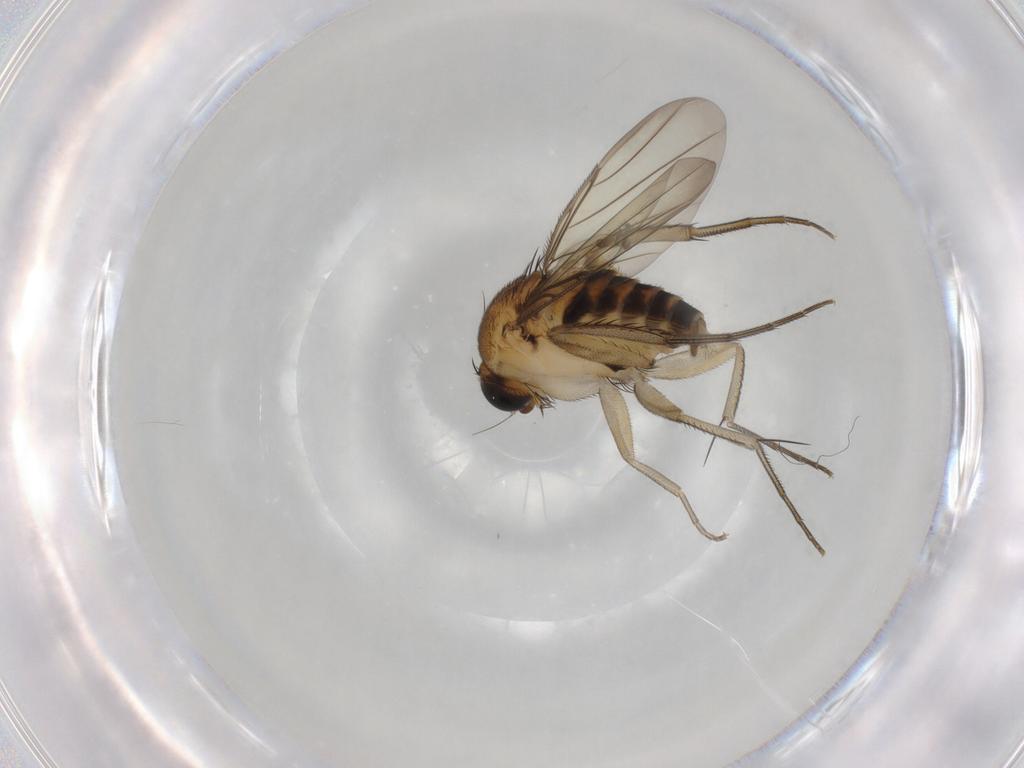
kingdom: Animalia
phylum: Arthropoda
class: Insecta
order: Diptera
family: Phoridae
